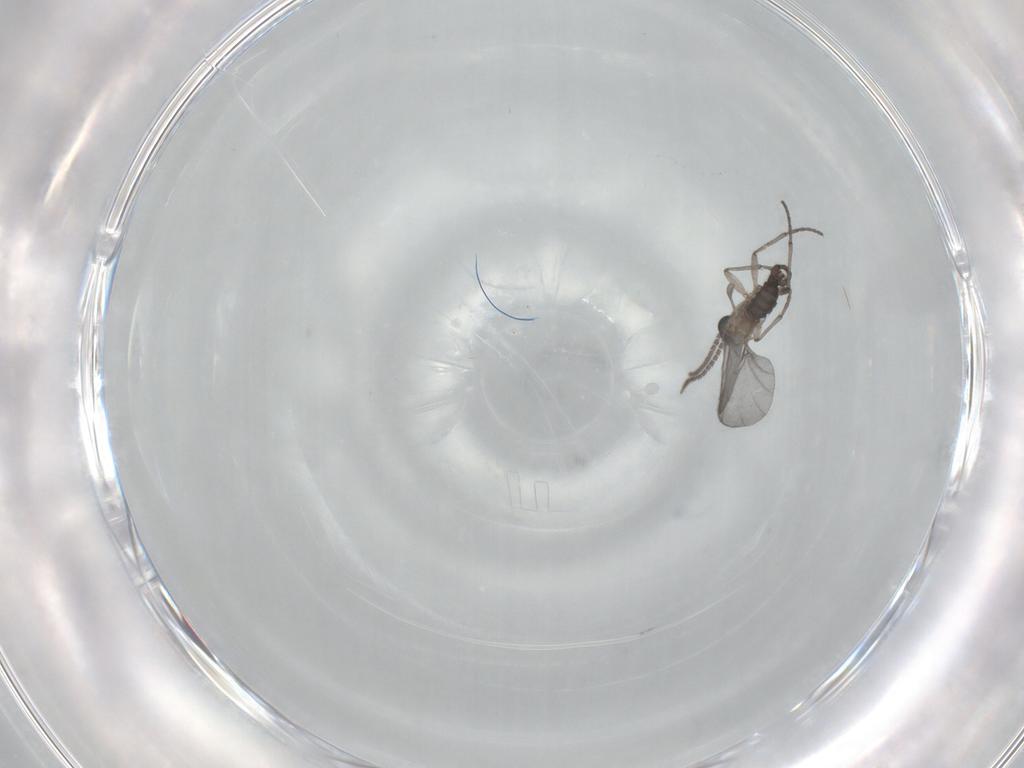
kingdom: Animalia
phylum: Arthropoda
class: Insecta
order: Diptera
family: Sciaridae
